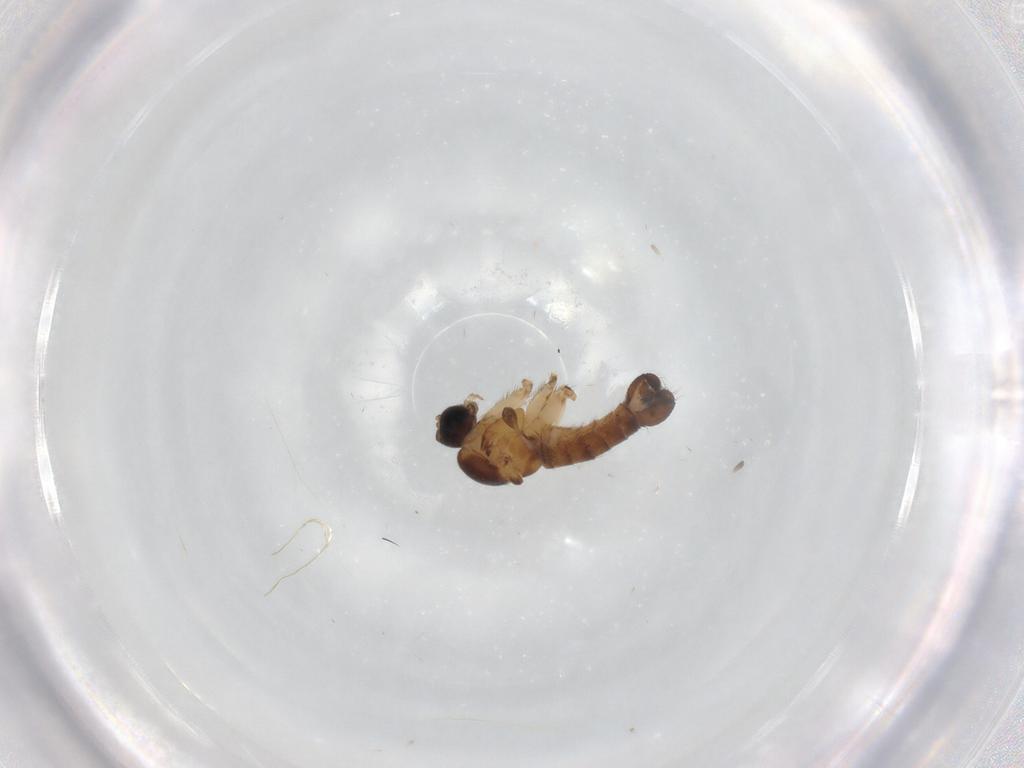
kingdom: Animalia
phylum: Arthropoda
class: Insecta
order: Diptera
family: Sciaridae
